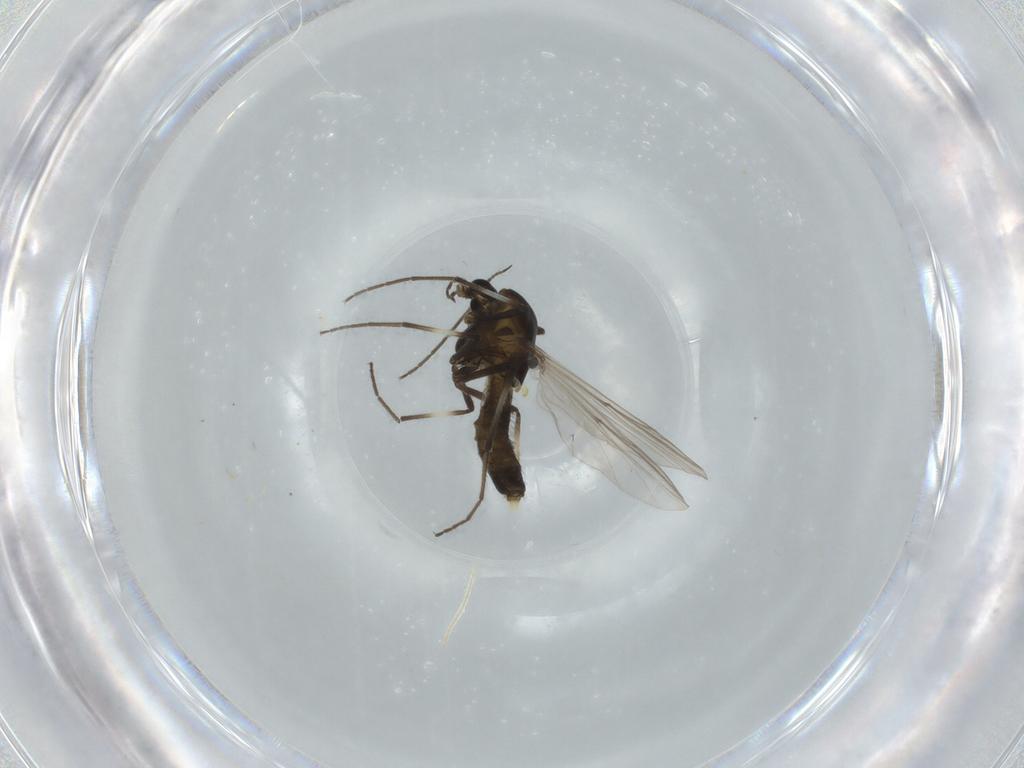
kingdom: Animalia
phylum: Arthropoda
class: Insecta
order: Diptera
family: Chironomidae
